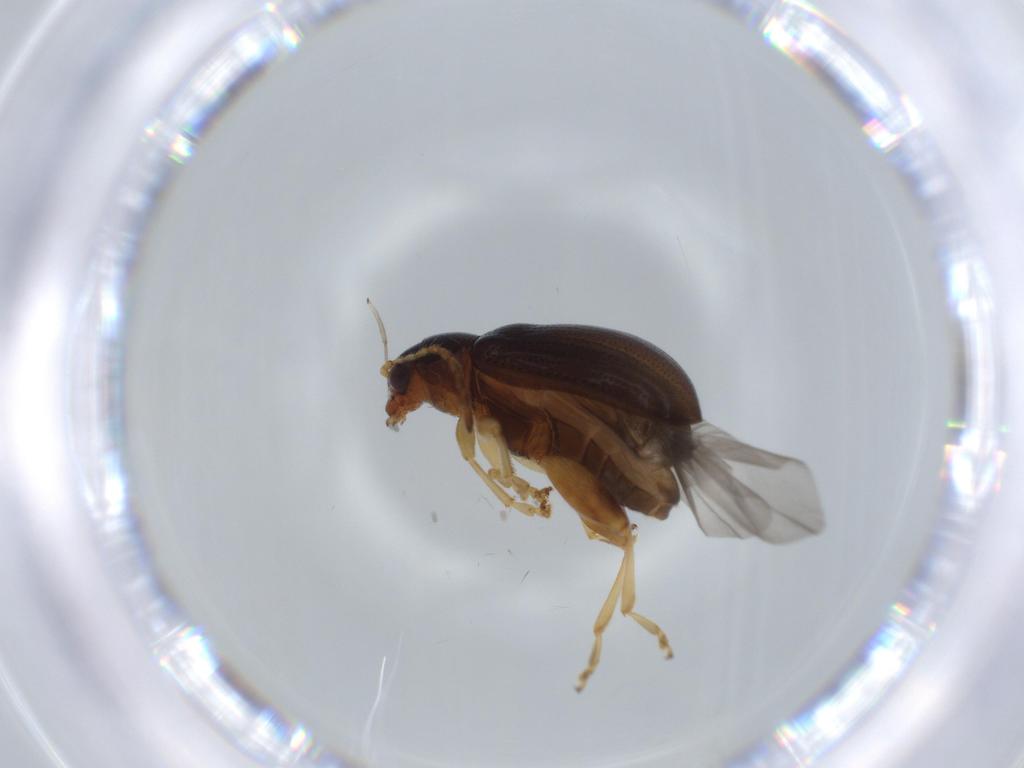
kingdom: Animalia
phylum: Arthropoda
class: Insecta
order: Coleoptera
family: Chrysomelidae
